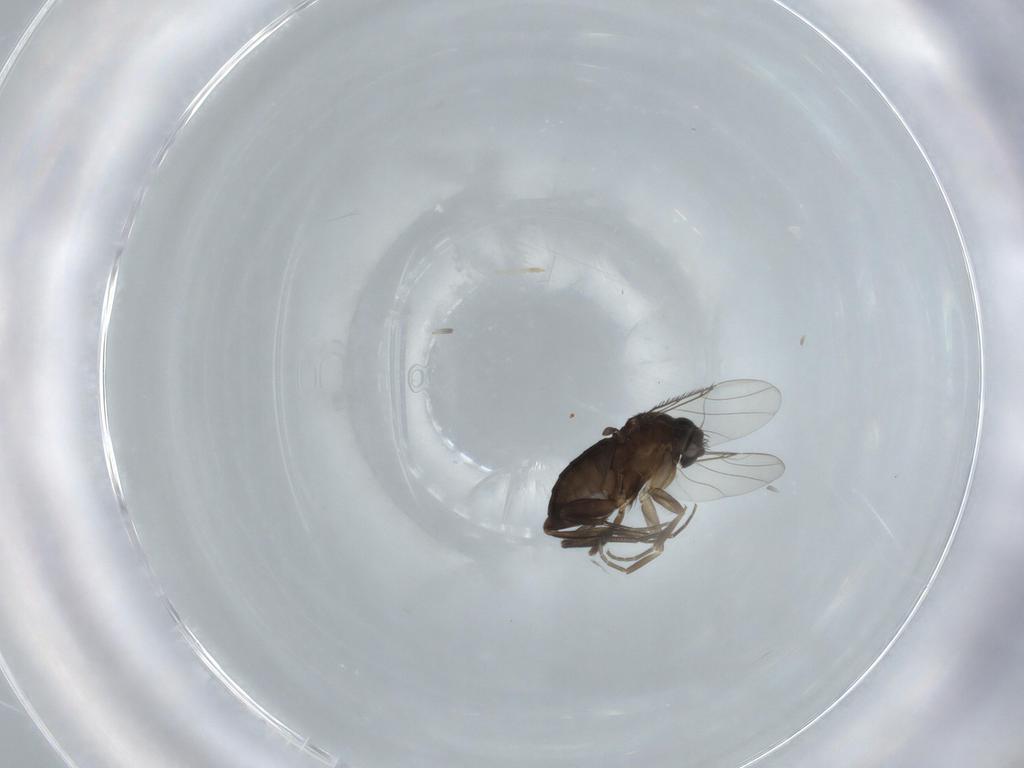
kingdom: Animalia
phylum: Arthropoda
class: Insecta
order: Diptera
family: Phoridae
